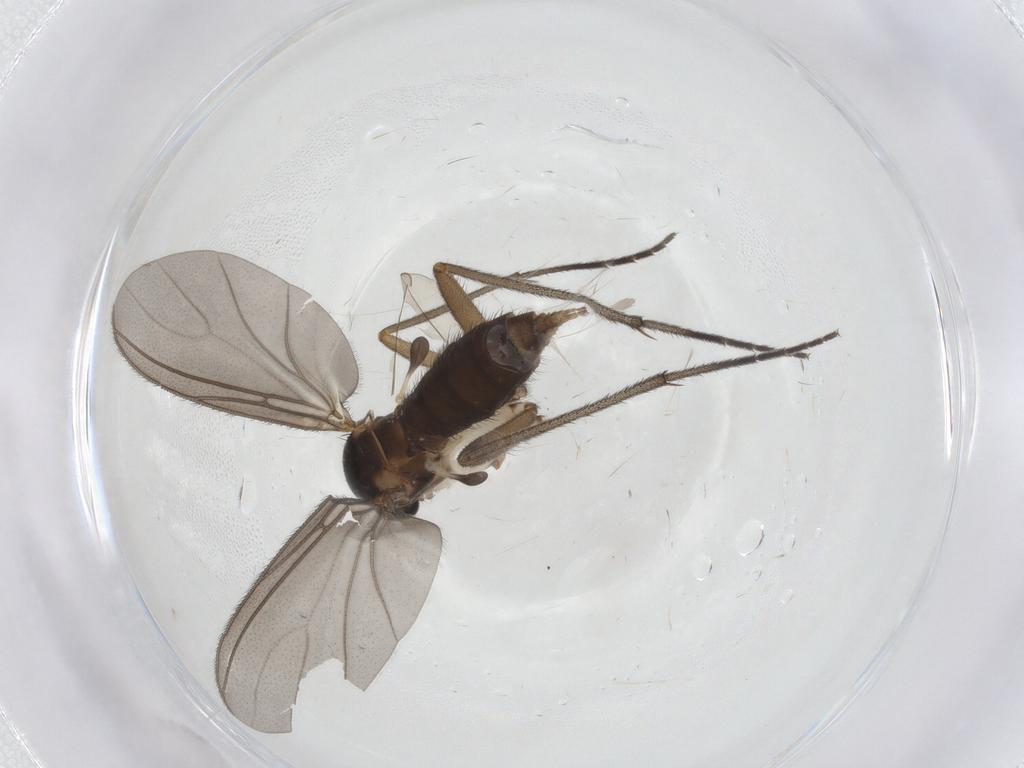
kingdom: Animalia
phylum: Arthropoda
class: Insecta
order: Diptera
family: Sciaridae
